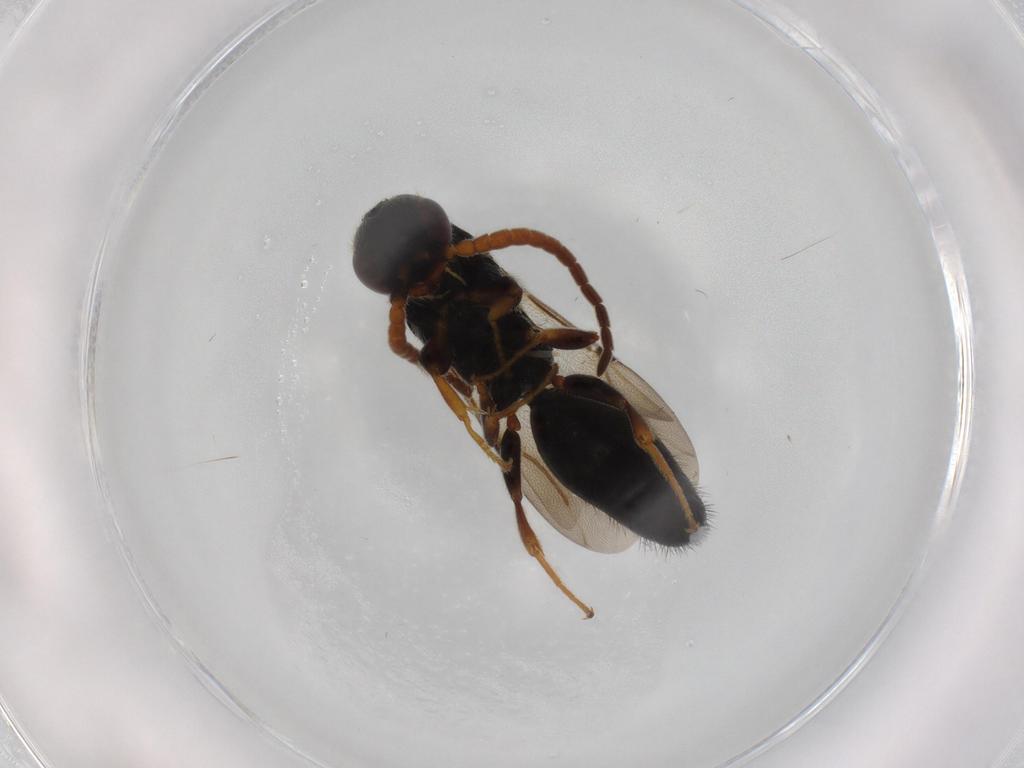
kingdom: Animalia
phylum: Arthropoda
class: Insecta
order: Hymenoptera
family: Bethylidae
